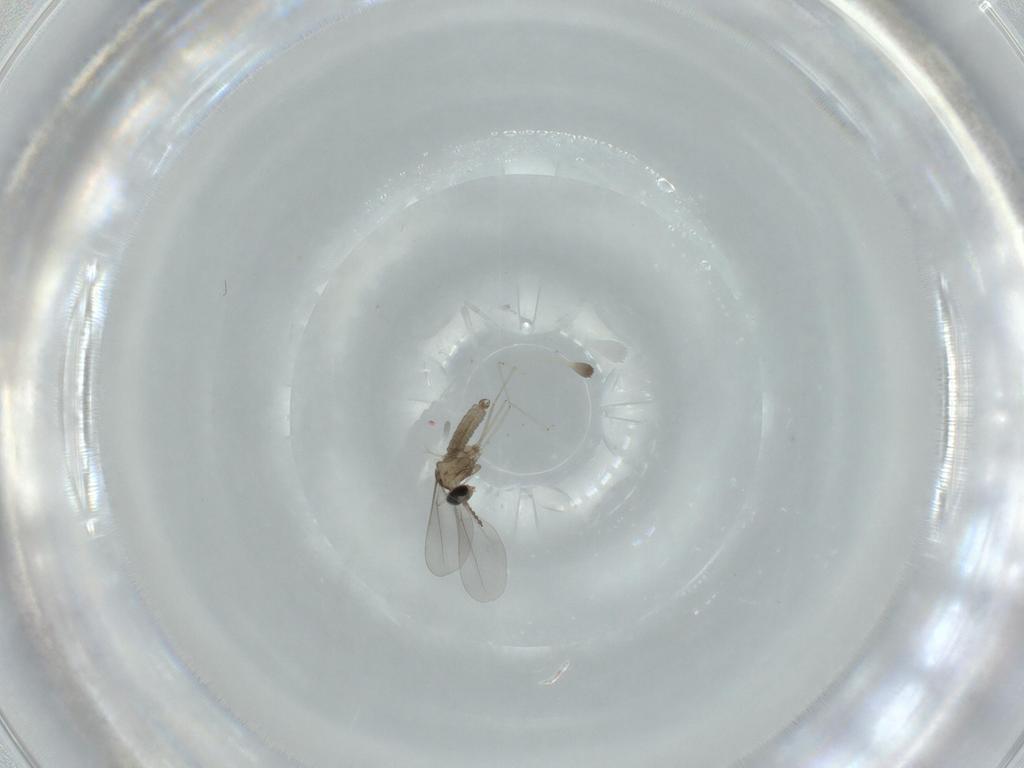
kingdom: Animalia
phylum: Arthropoda
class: Insecta
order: Diptera
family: Cecidomyiidae
